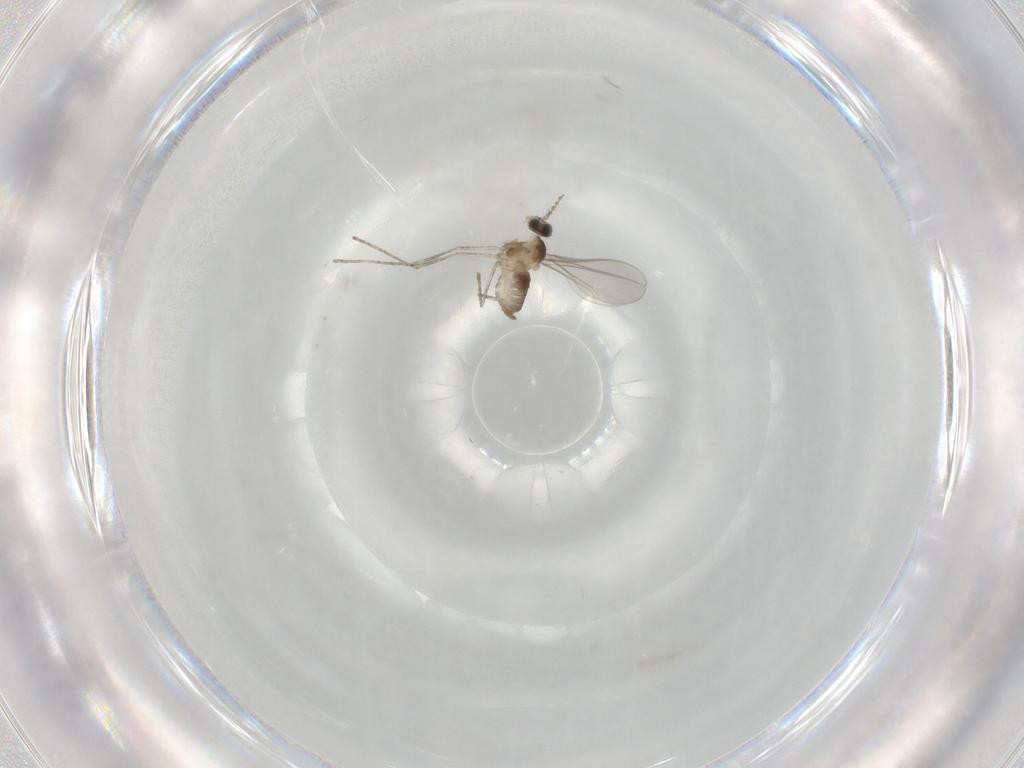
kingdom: Animalia
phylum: Arthropoda
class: Insecta
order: Diptera
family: Cecidomyiidae
